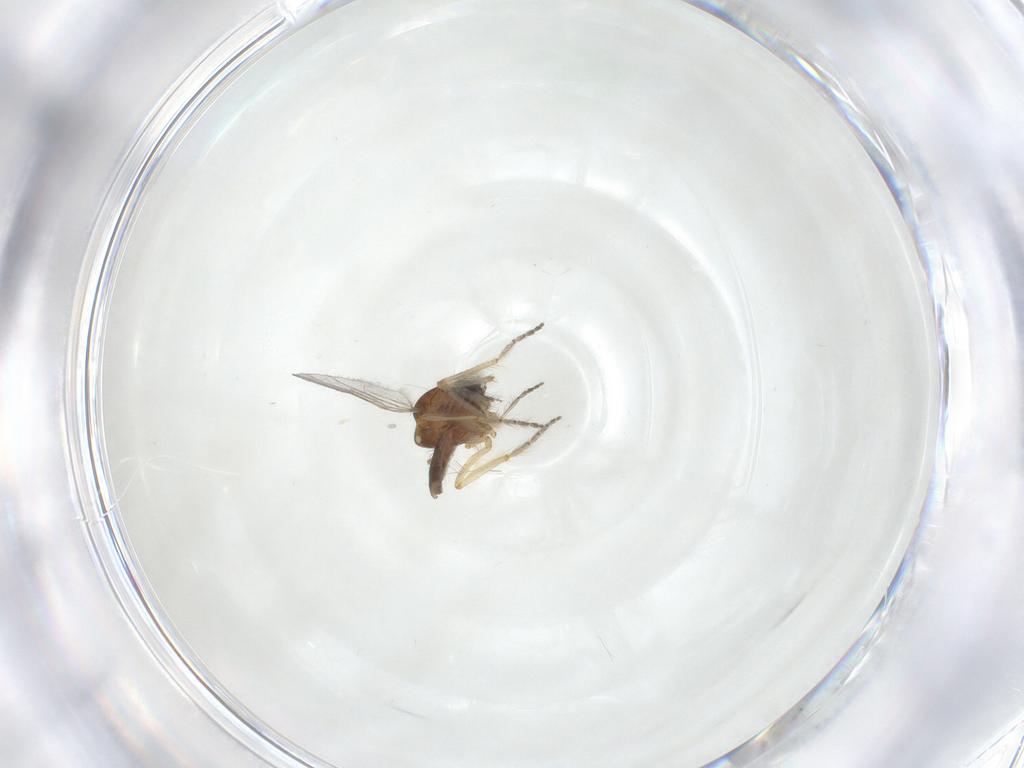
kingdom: Animalia
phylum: Arthropoda
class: Insecta
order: Diptera
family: Ceratopogonidae
